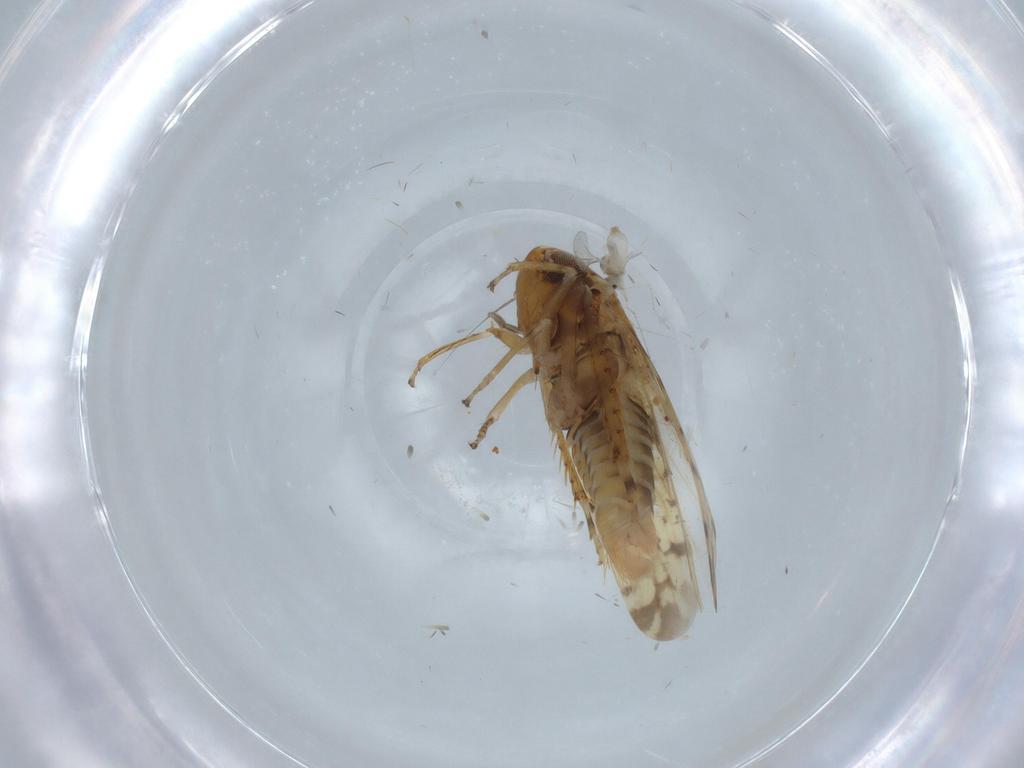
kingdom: Animalia
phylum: Arthropoda
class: Insecta
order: Hemiptera
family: Cicadellidae
